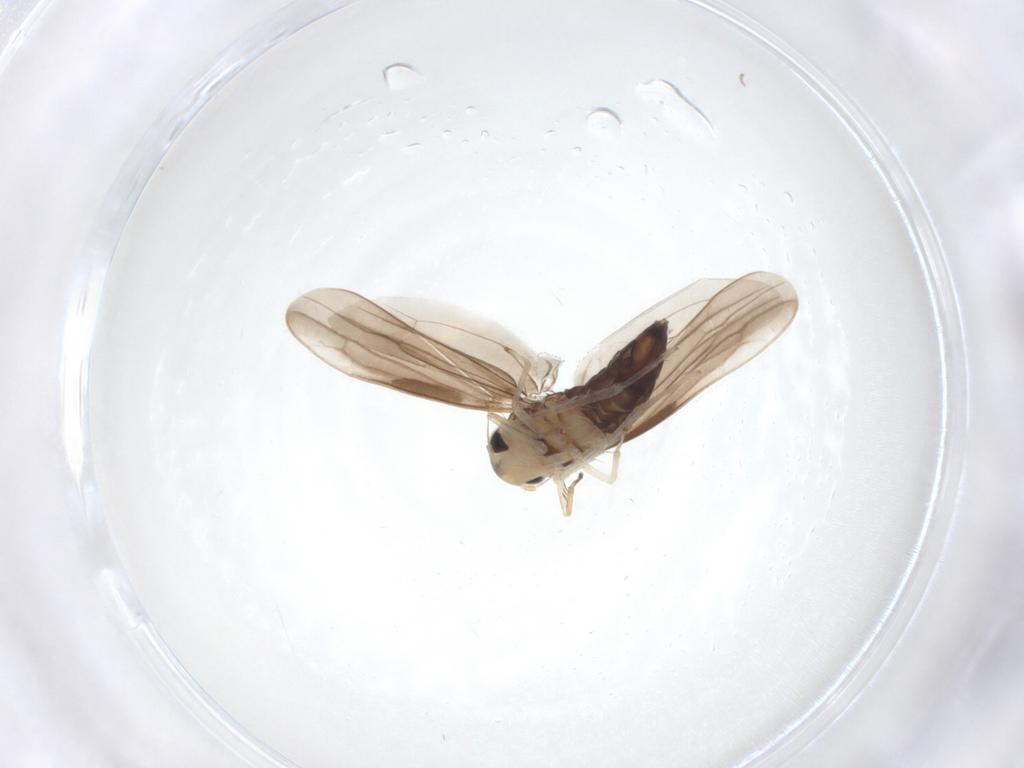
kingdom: Animalia
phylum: Arthropoda
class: Insecta
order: Hemiptera
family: Cicadellidae
